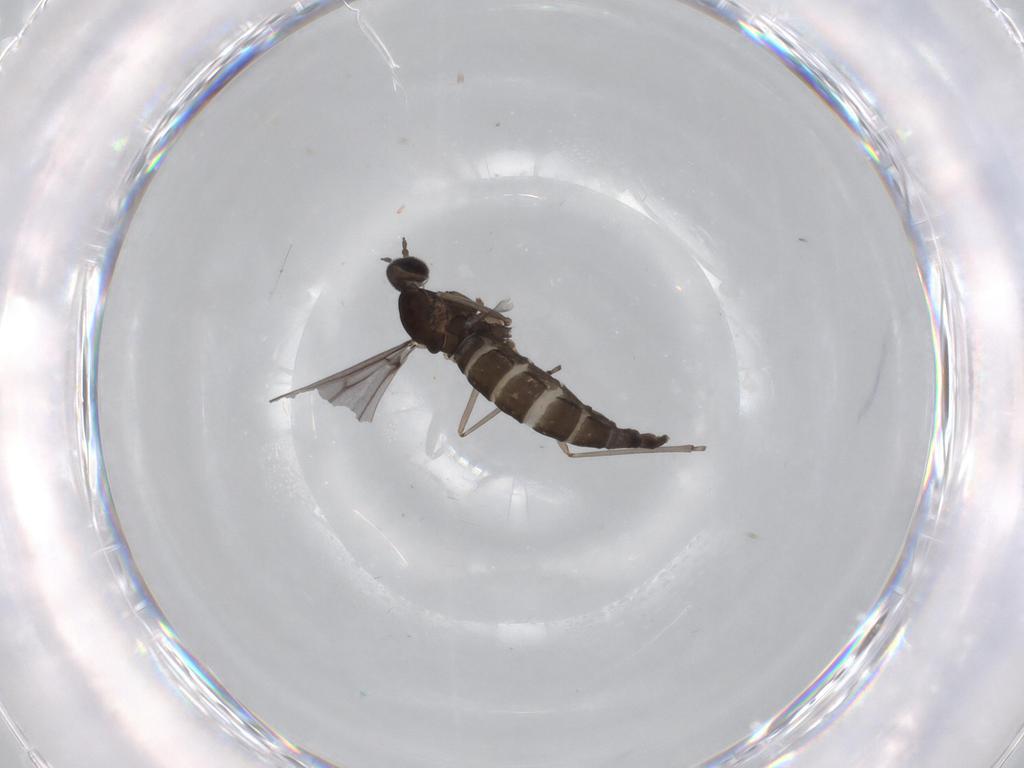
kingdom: Animalia
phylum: Arthropoda
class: Insecta
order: Diptera
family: Cecidomyiidae
